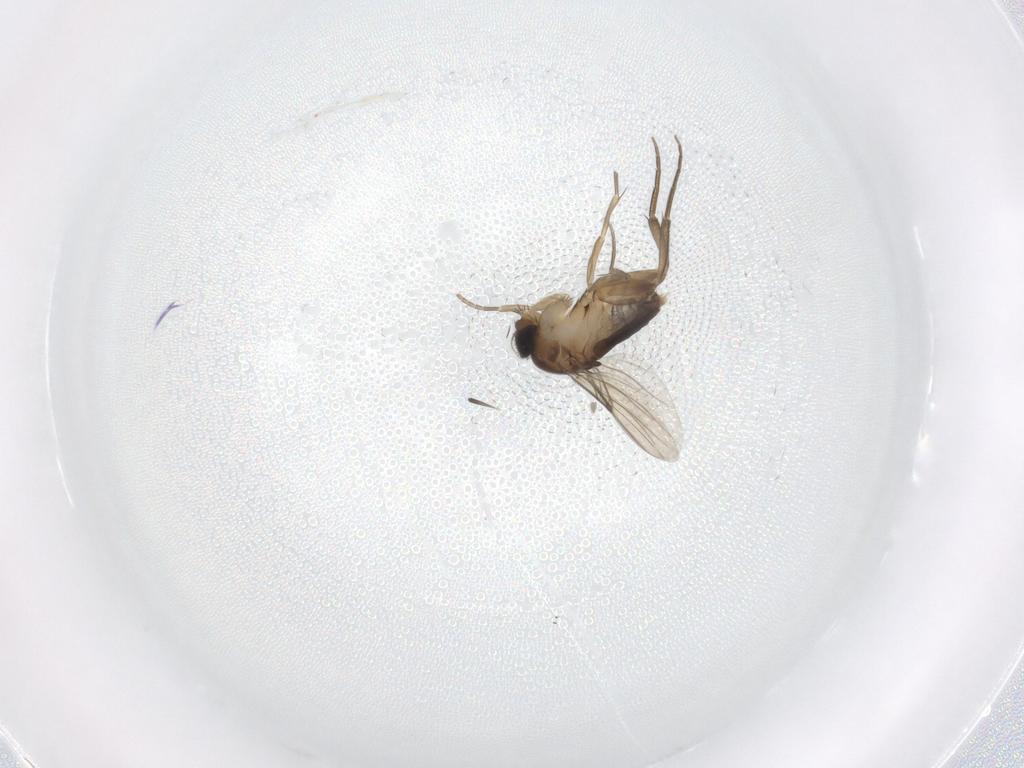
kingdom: Animalia
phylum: Arthropoda
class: Insecta
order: Diptera
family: Phoridae
